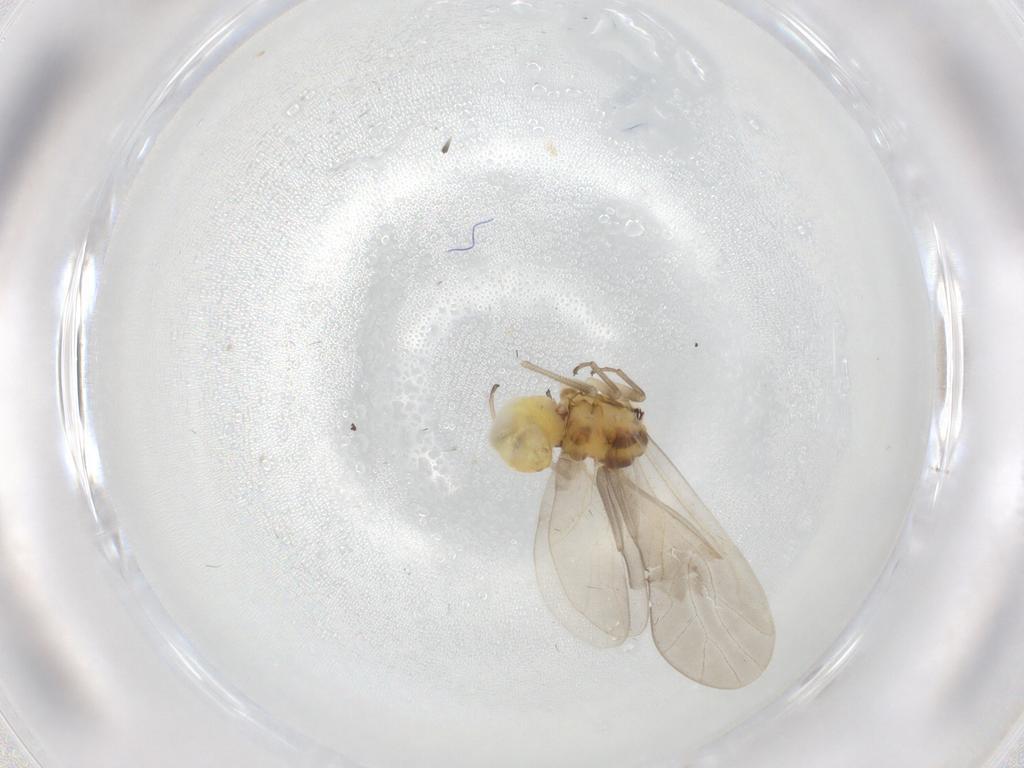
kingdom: Animalia
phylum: Arthropoda
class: Insecta
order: Psocodea
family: Caeciliusidae
